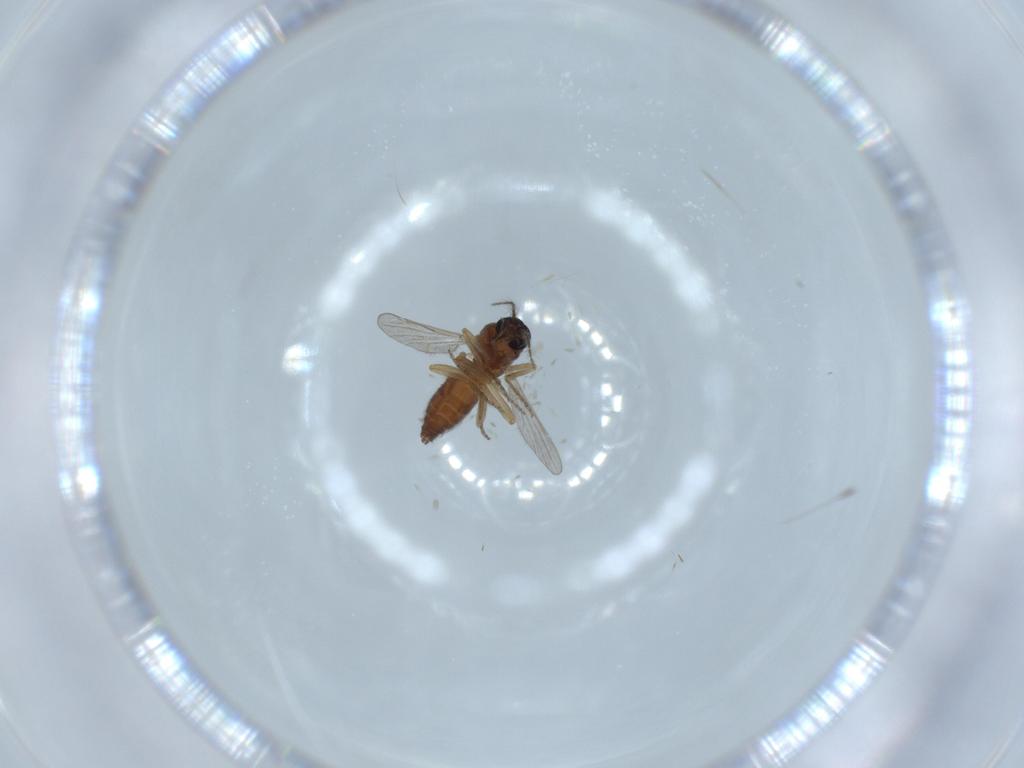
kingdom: Animalia
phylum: Arthropoda
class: Insecta
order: Diptera
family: Ceratopogonidae
